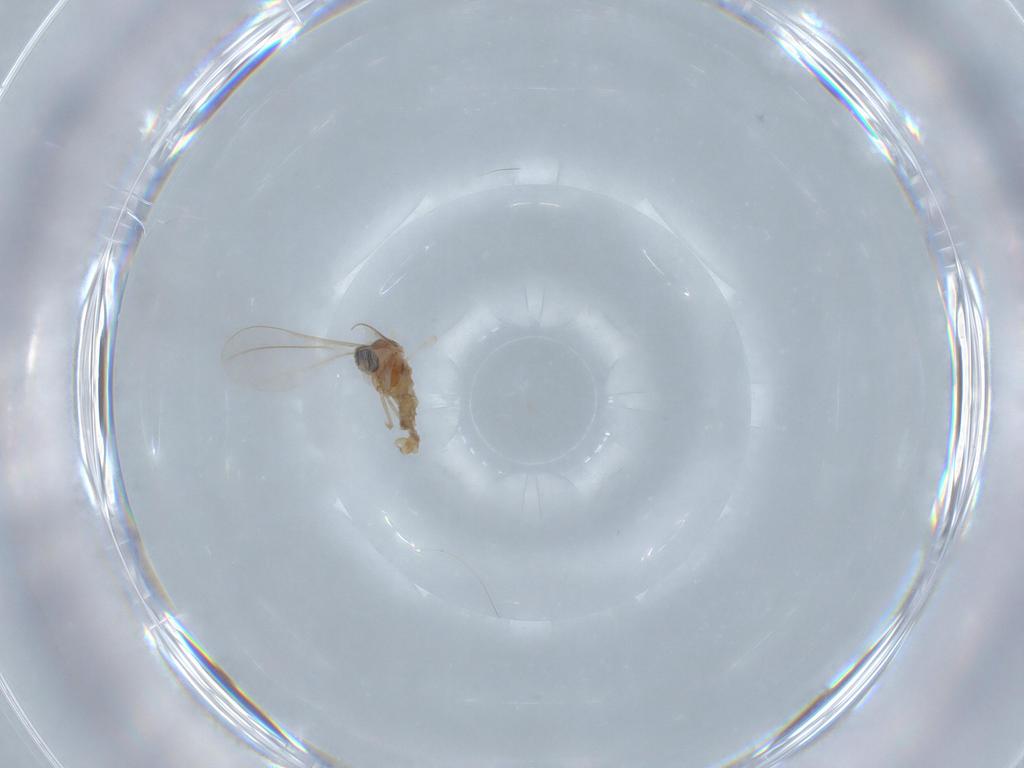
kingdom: Animalia
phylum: Arthropoda
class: Insecta
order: Diptera
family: Cecidomyiidae
